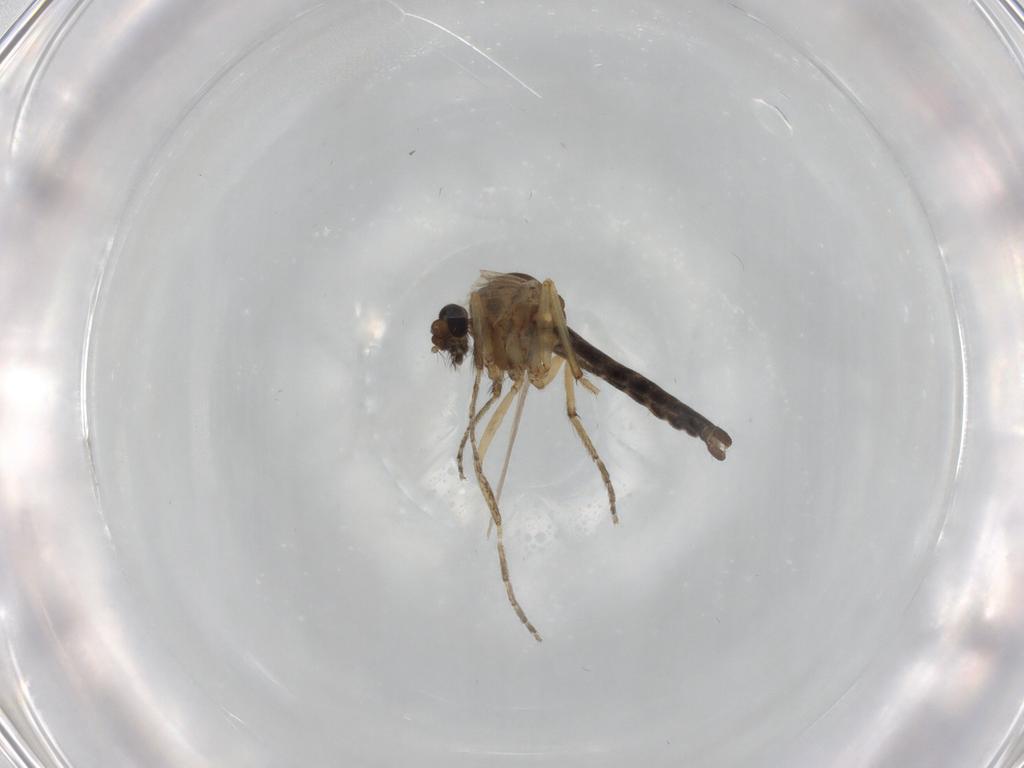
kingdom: Animalia
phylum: Arthropoda
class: Insecta
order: Diptera
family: Ceratopogonidae
